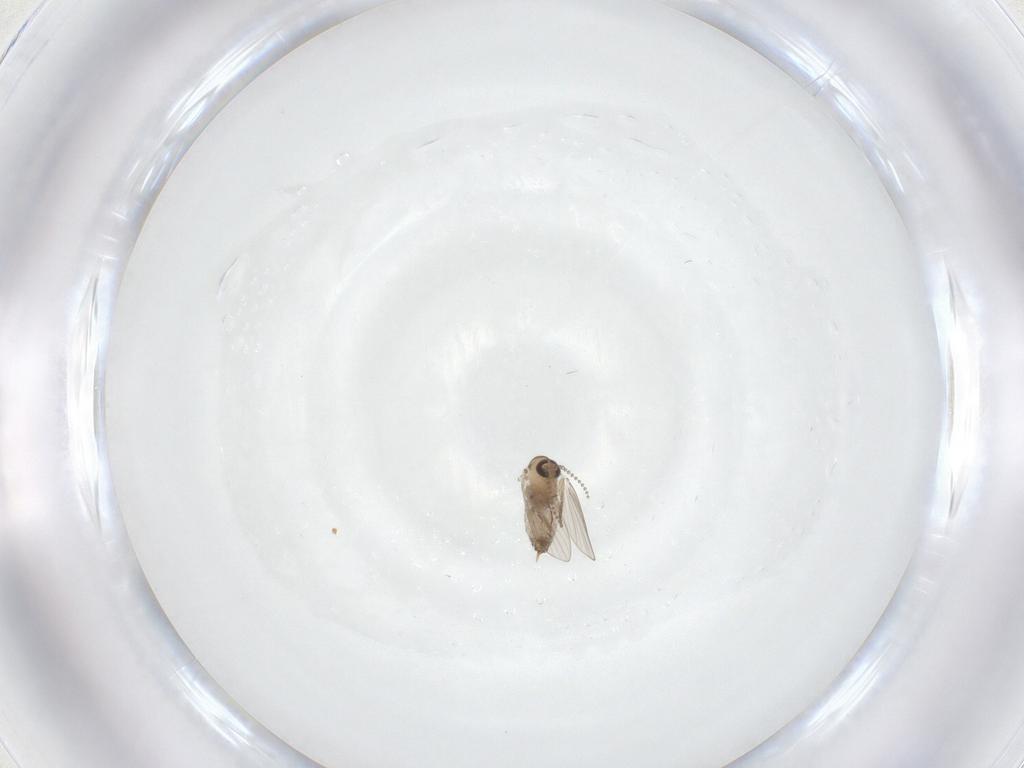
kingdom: Animalia
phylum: Arthropoda
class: Insecta
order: Diptera
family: Psychodidae
